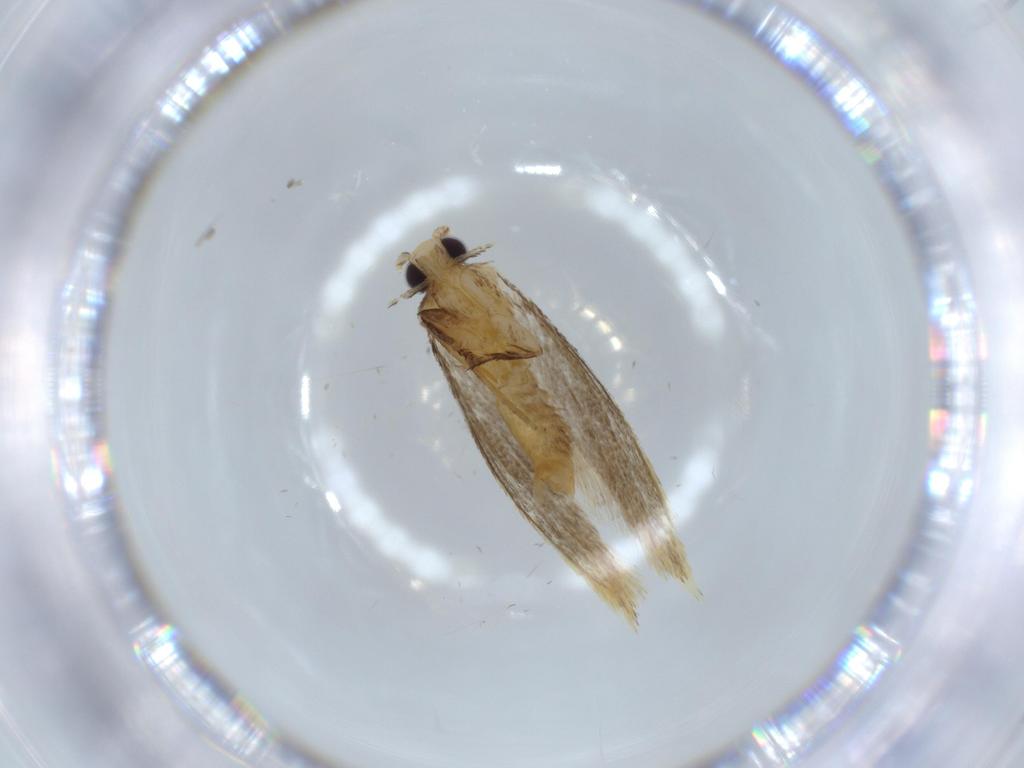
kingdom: Animalia
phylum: Arthropoda
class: Insecta
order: Lepidoptera
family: Tineidae
